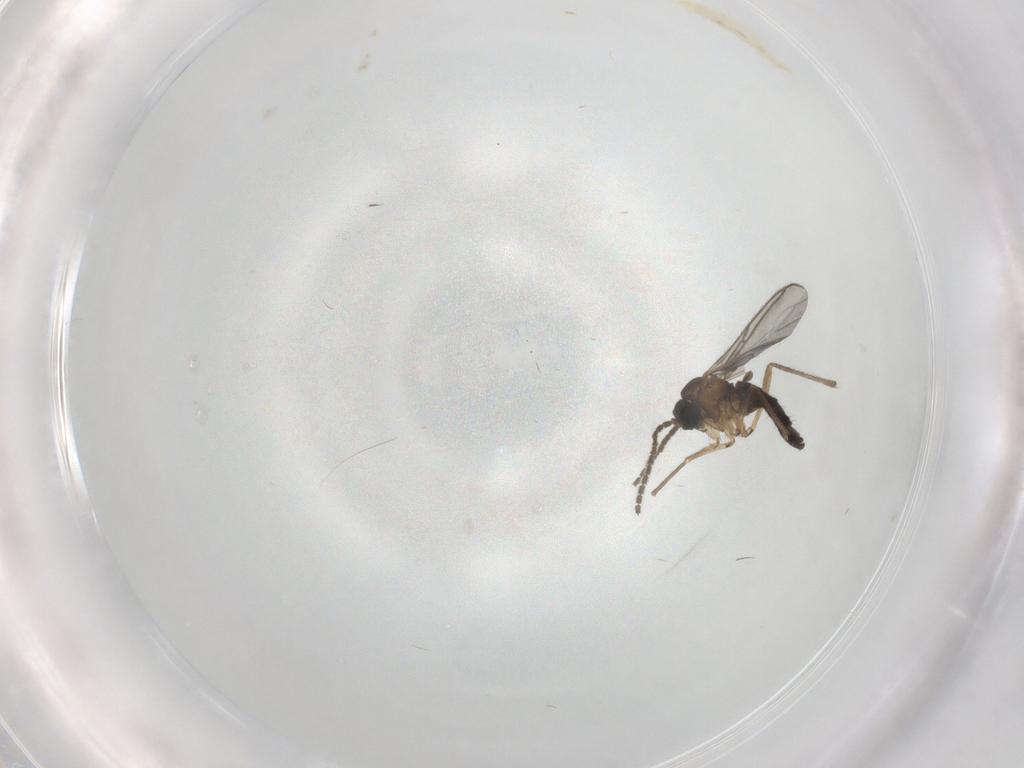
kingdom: Animalia
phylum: Arthropoda
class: Insecta
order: Diptera
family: Sciaridae
